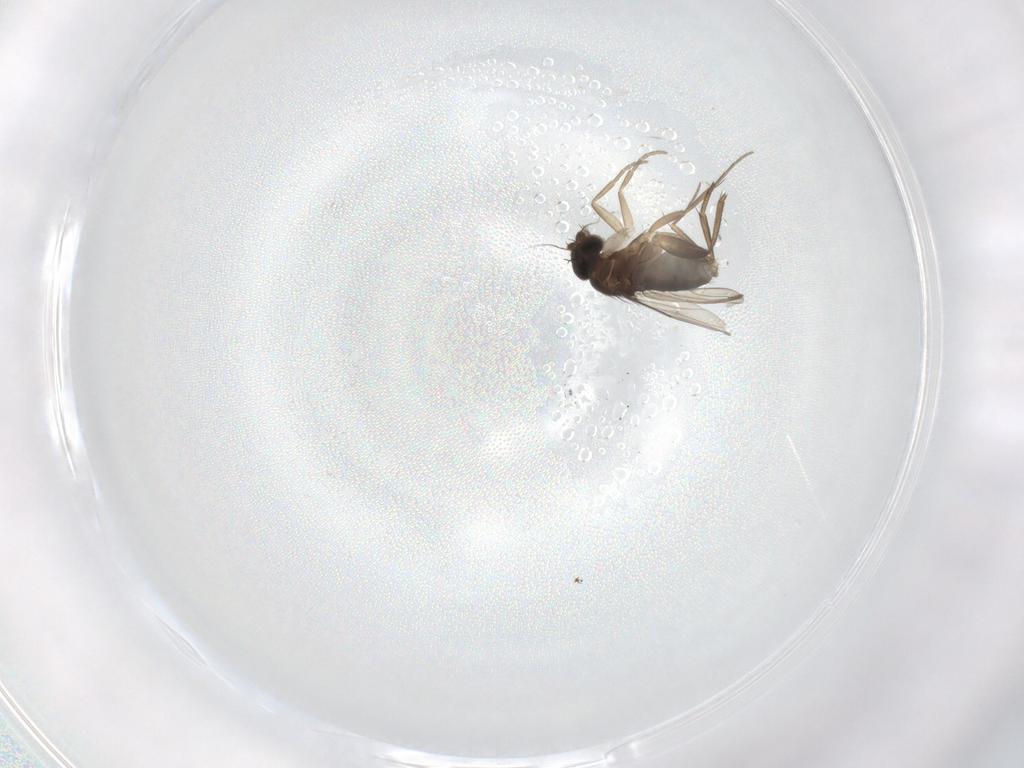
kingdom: Animalia
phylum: Arthropoda
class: Insecta
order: Diptera
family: Phoridae
